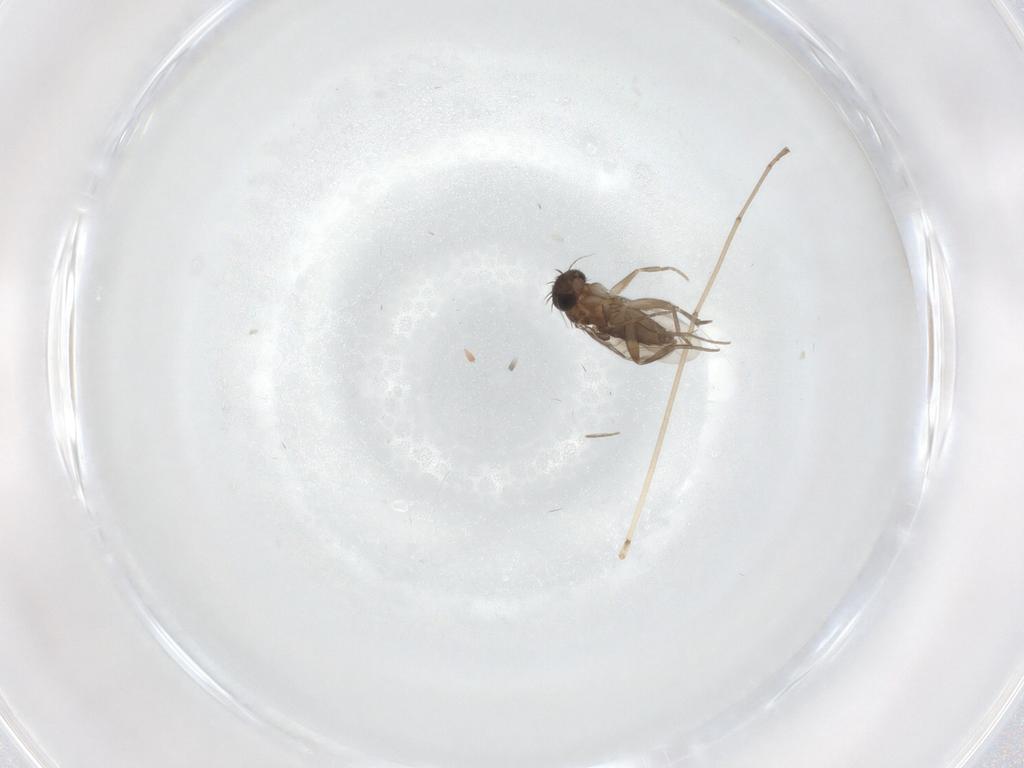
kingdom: Animalia
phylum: Arthropoda
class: Insecta
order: Diptera
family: Phoridae
